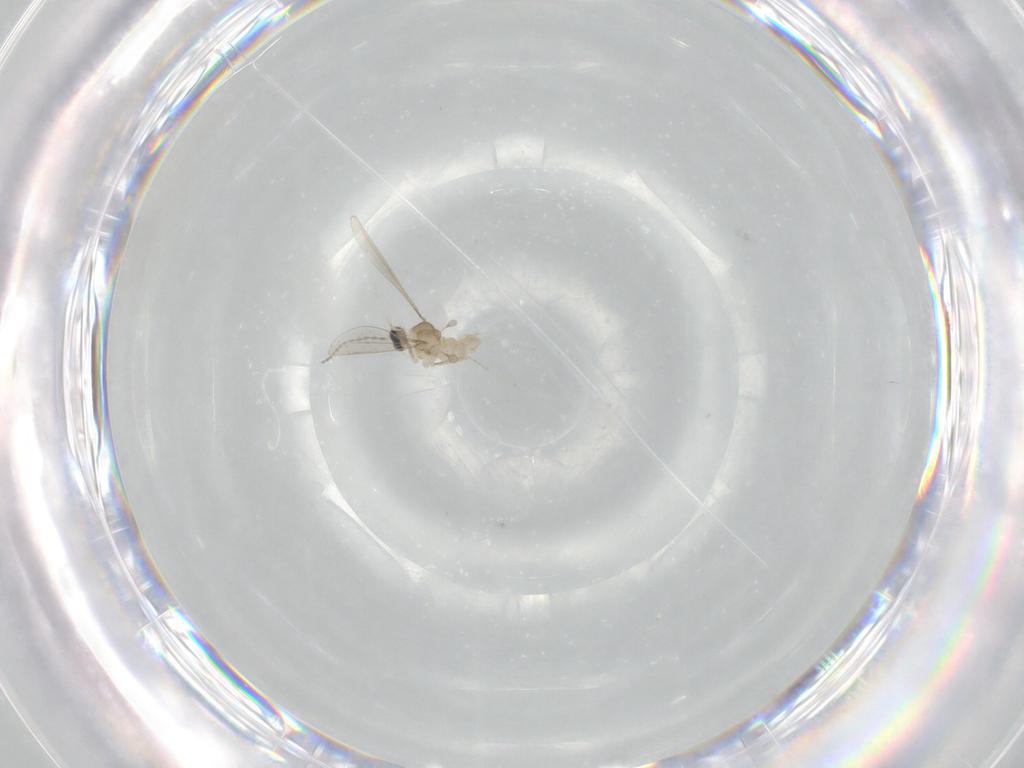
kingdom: Animalia
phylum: Arthropoda
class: Insecta
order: Diptera
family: Cecidomyiidae
